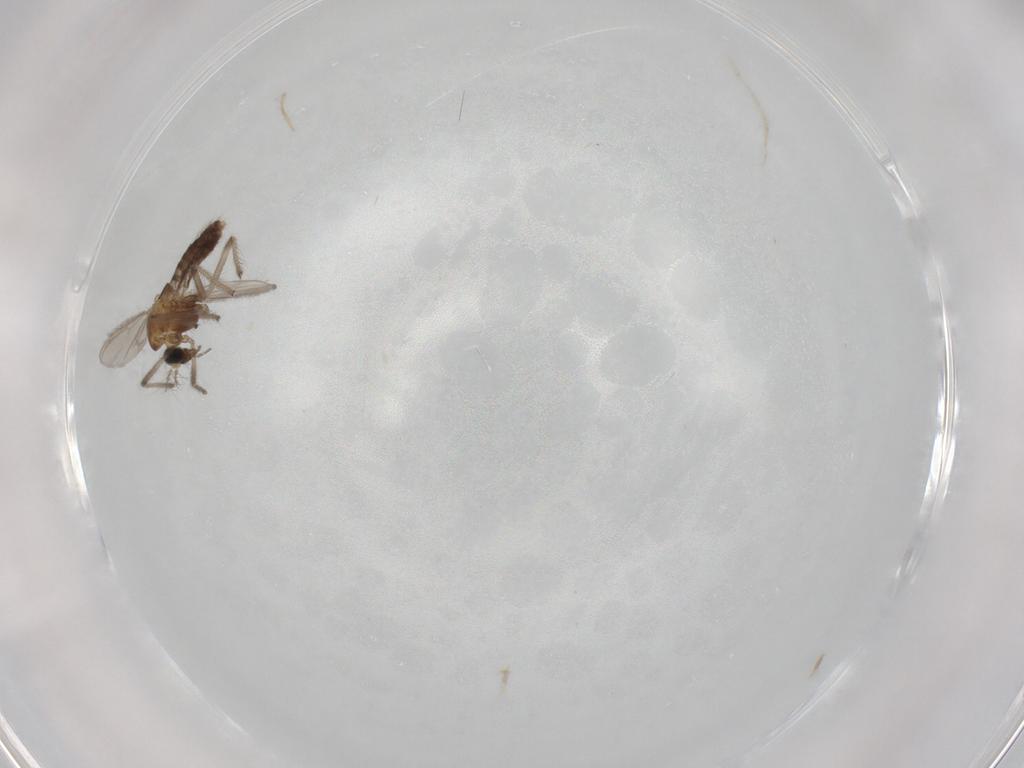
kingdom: Animalia
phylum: Arthropoda
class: Insecta
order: Diptera
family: Chironomidae
